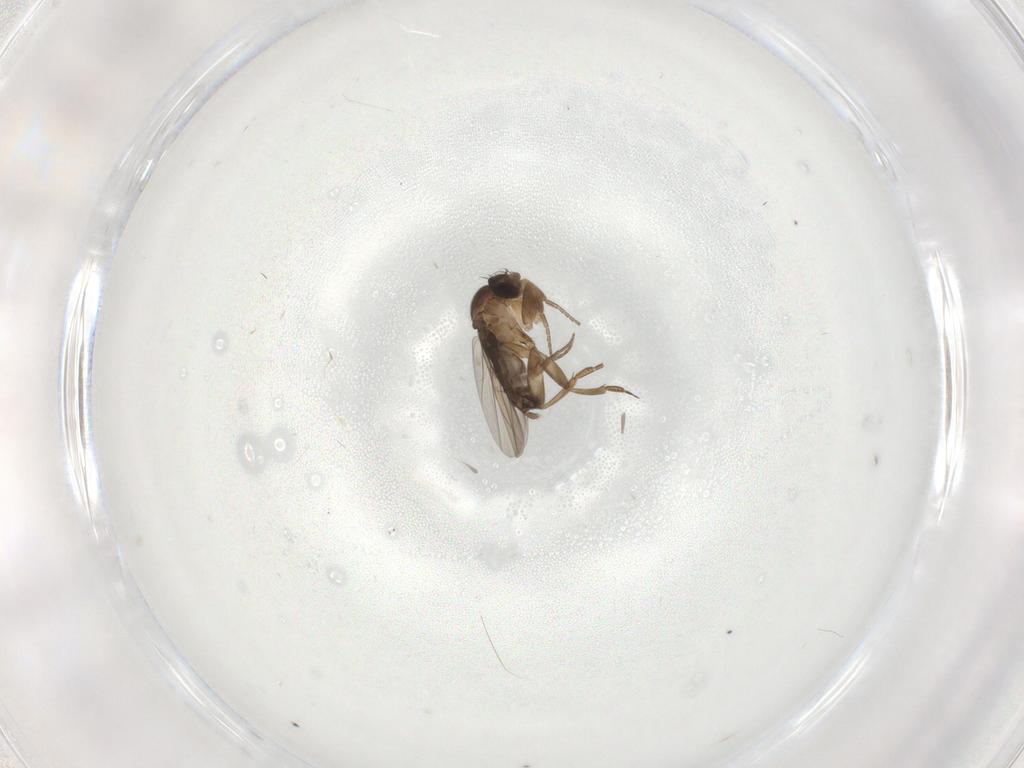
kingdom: Animalia
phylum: Arthropoda
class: Insecta
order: Diptera
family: Phoridae
